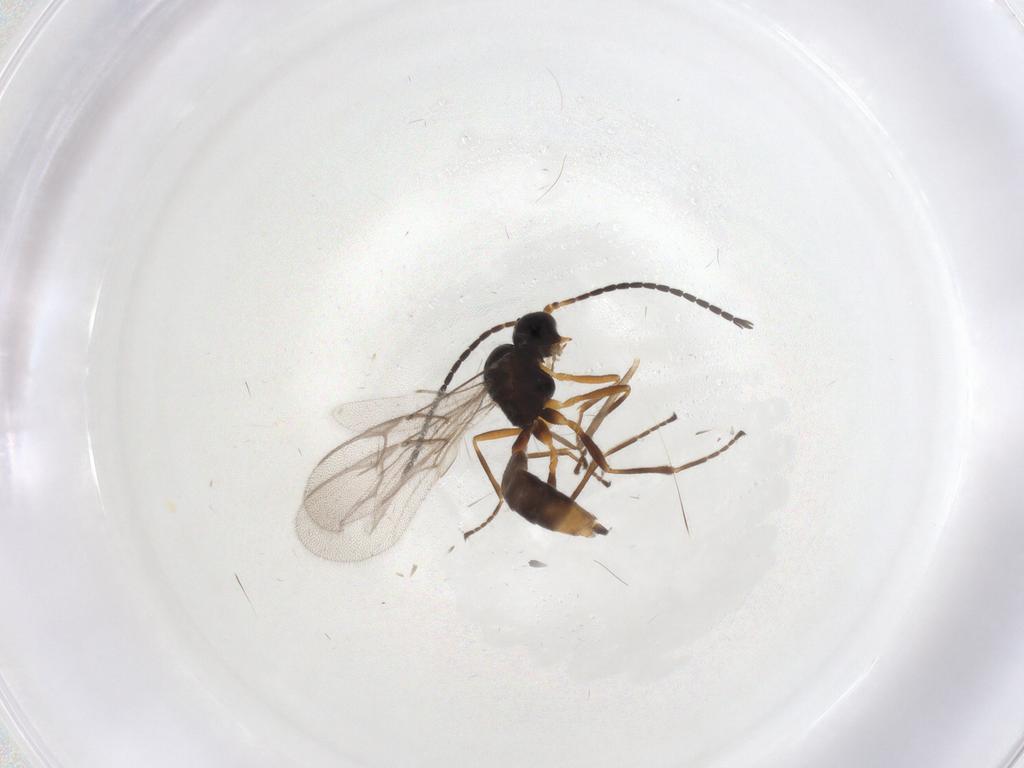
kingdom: Animalia
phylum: Arthropoda
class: Insecta
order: Hymenoptera
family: Braconidae
